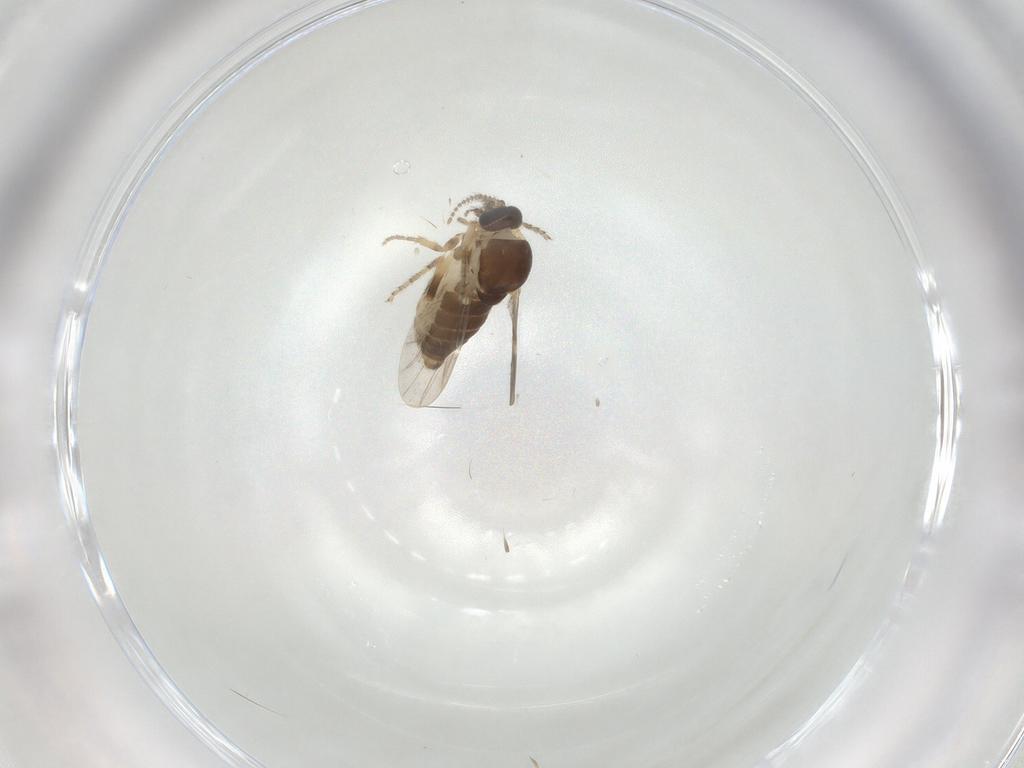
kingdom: Animalia
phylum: Arthropoda
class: Insecta
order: Diptera
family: Ceratopogonidae
